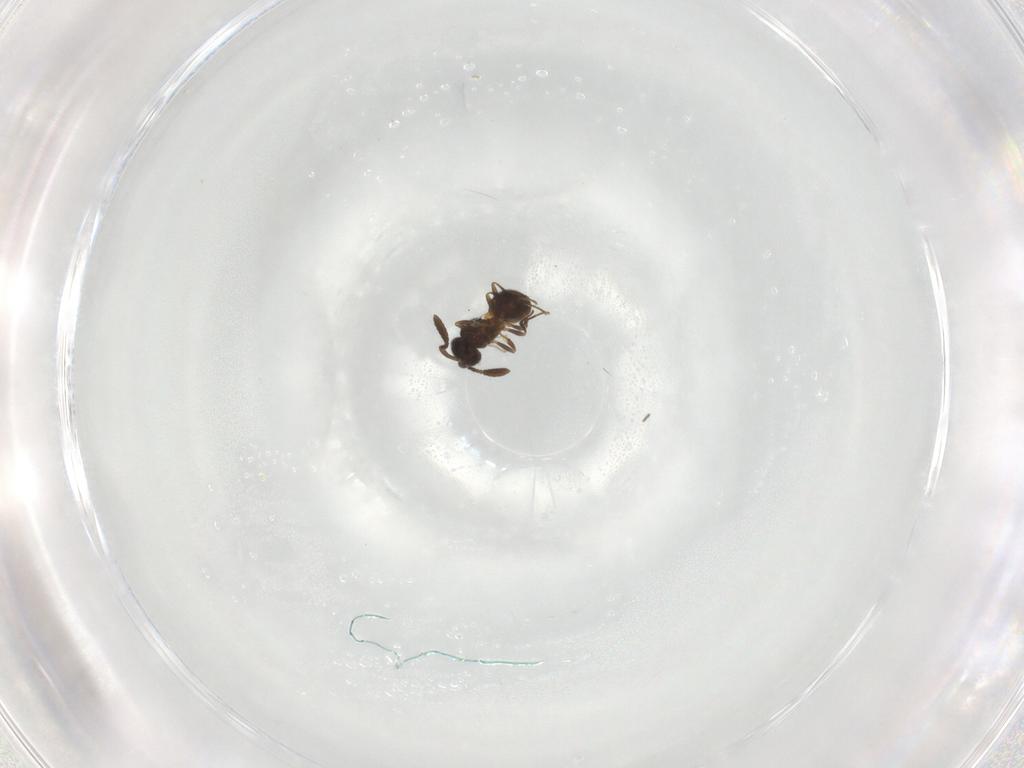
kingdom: Animalia
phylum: Arthropoda
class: Insecta
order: Hymenoptera
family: Scelionidae
